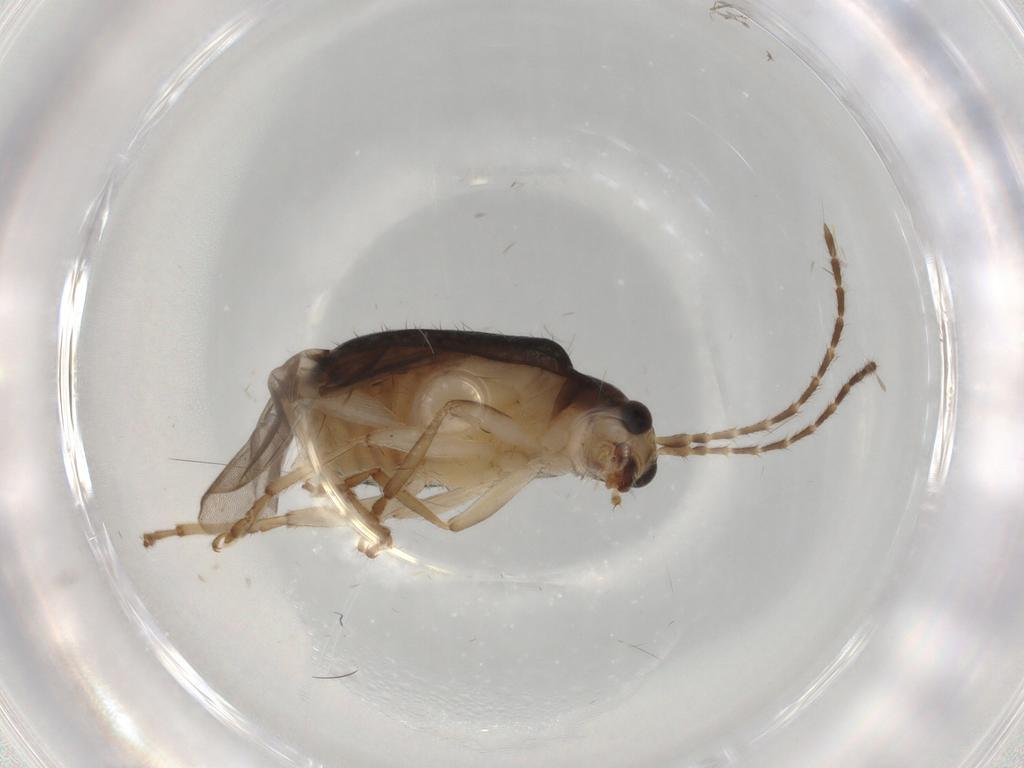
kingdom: Animalia
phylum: Arthropoda
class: Insecta
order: Coleoptera
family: Chrysomelidae
